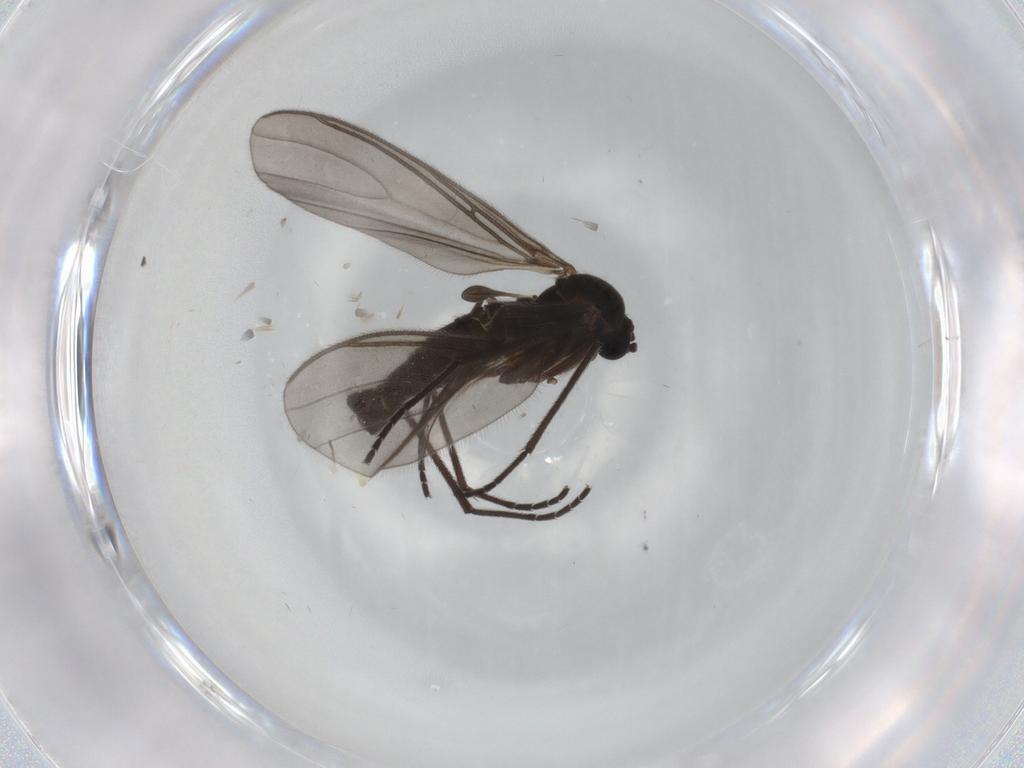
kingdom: Animalia
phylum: Arthropoda
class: Insecta
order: Diptera
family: Sciaridae
